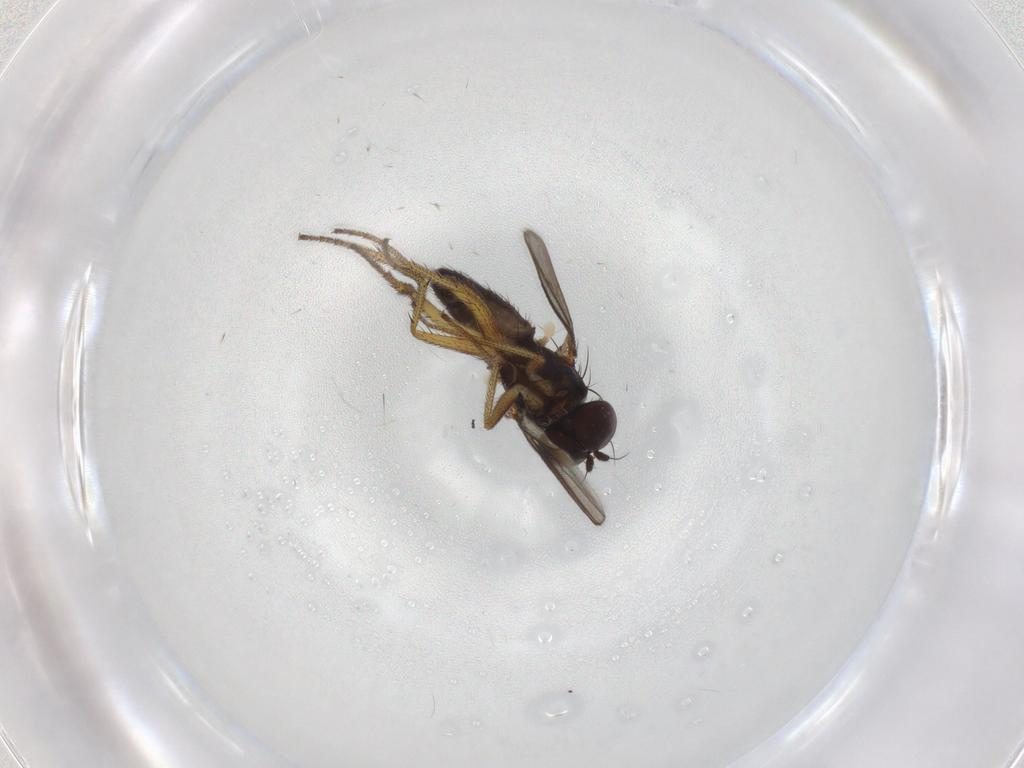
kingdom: Animalia
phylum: Arthropoda
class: Insecta
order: Diptera
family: Dolichopodidae
